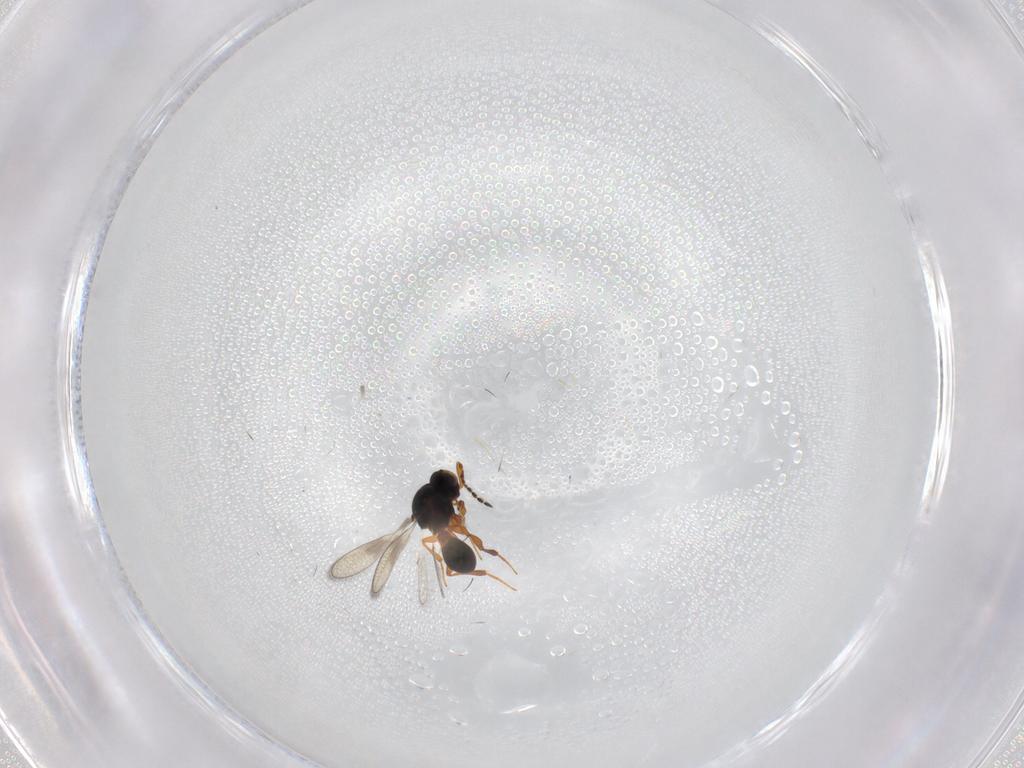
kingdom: Animalia
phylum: Arthropoda
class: Insecta
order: Hymenoptera
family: Platygastridae
